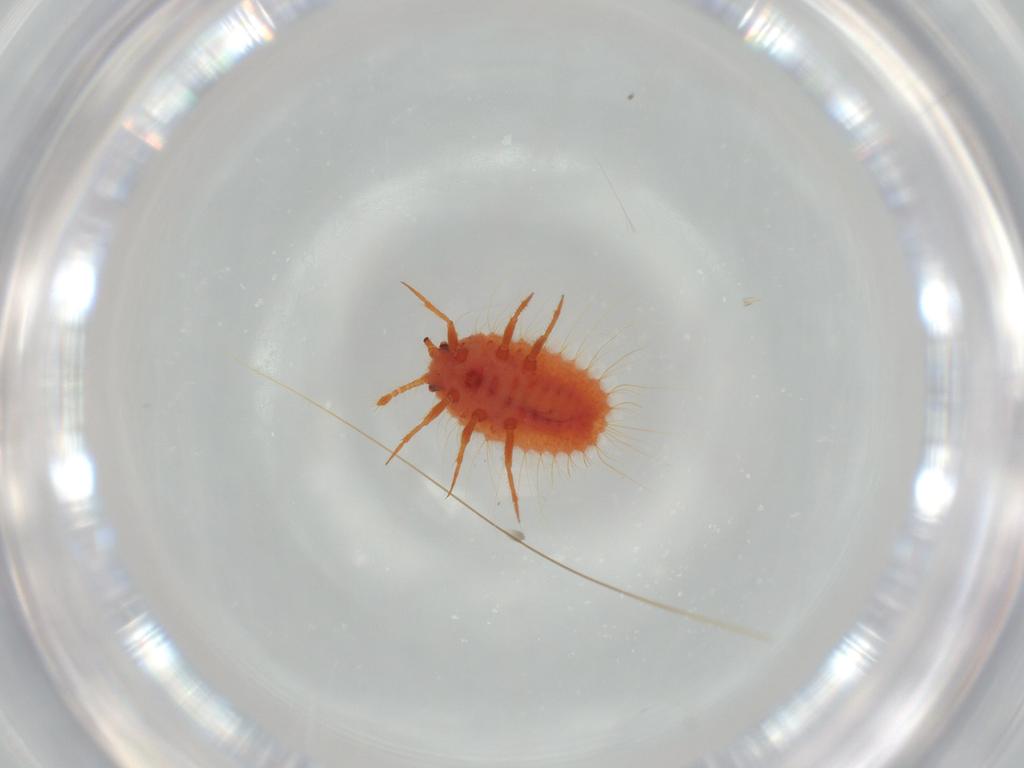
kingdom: Animalia
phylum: Arthropoda
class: Insecta
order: Hemiptera
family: Coccoidea_incertae_sedis
